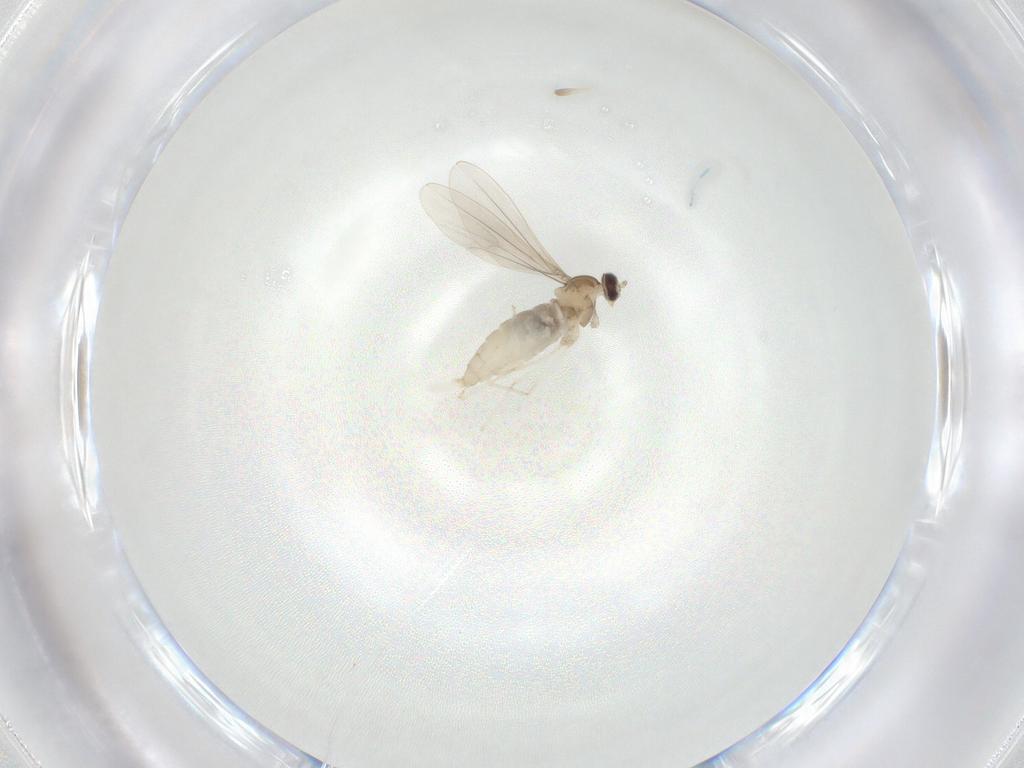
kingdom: Animalia
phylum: Arthropoda
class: Insecta
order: Diptera
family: Cecidomyiidae
